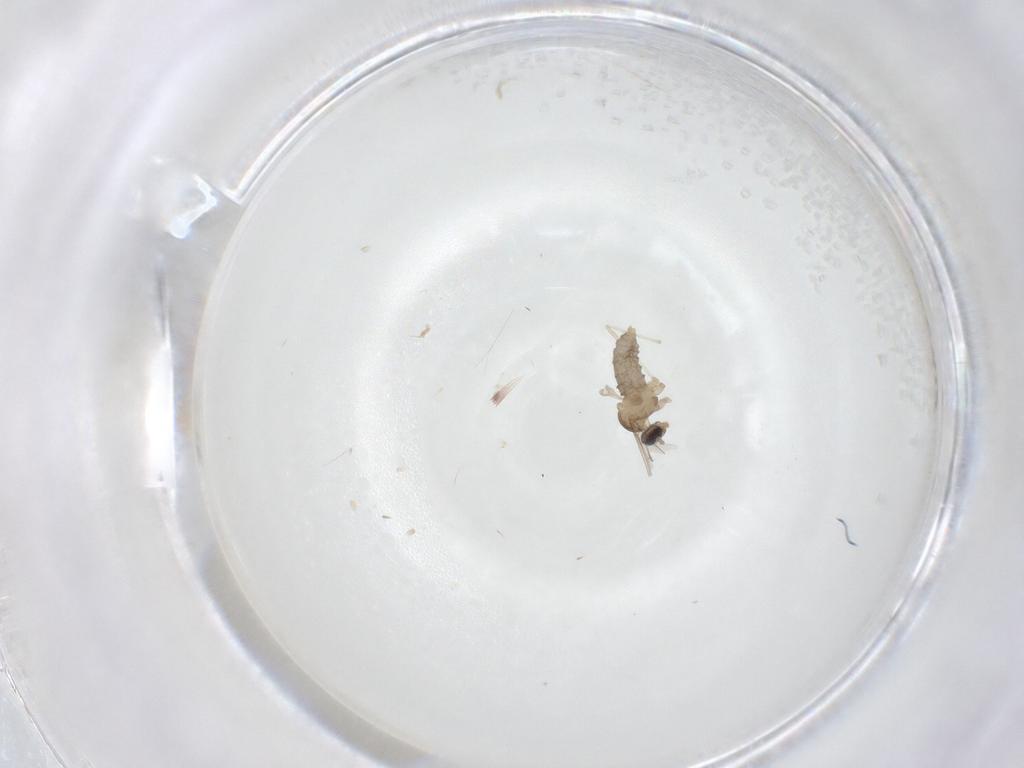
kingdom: Animalia
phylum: Arthropoda
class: Insecta
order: Diptera
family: Cecidomyiidae
